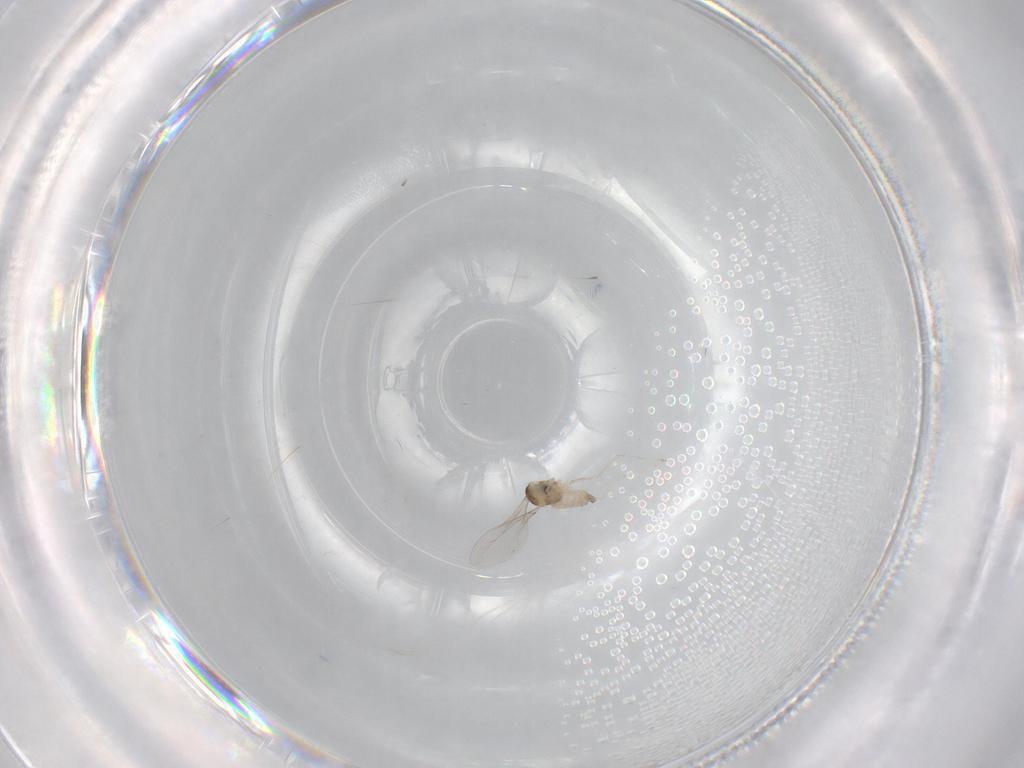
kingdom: Animalia
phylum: Arthropoda
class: Insecta
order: Diptera
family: Cecidomyiidae
